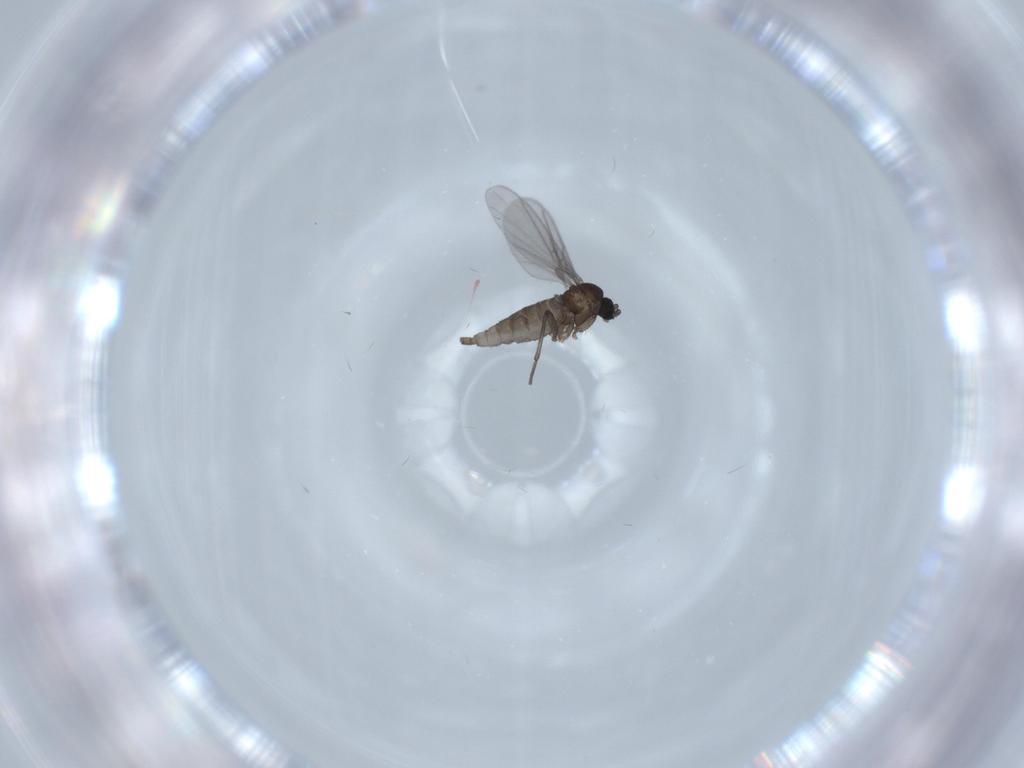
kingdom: Animalia
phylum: Arthropoda
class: Insecta
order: Diptera
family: Sciaridae
